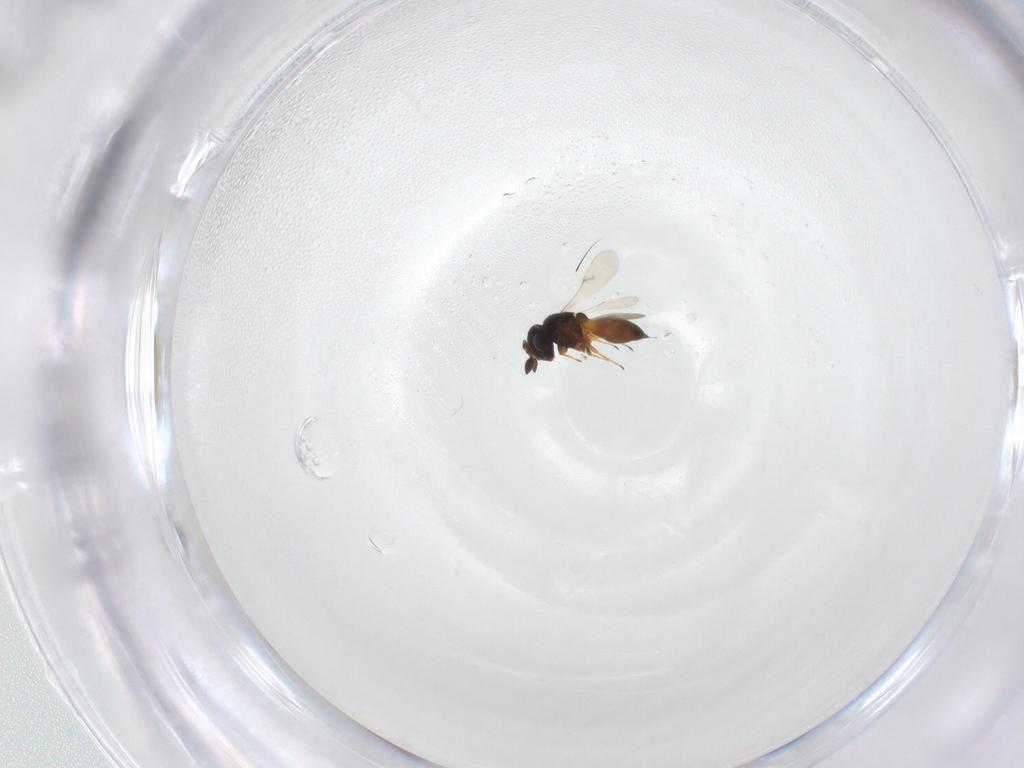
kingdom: Animalia
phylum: Arthropoda
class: Insecta
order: Hymenoptera
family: Scelionidae
